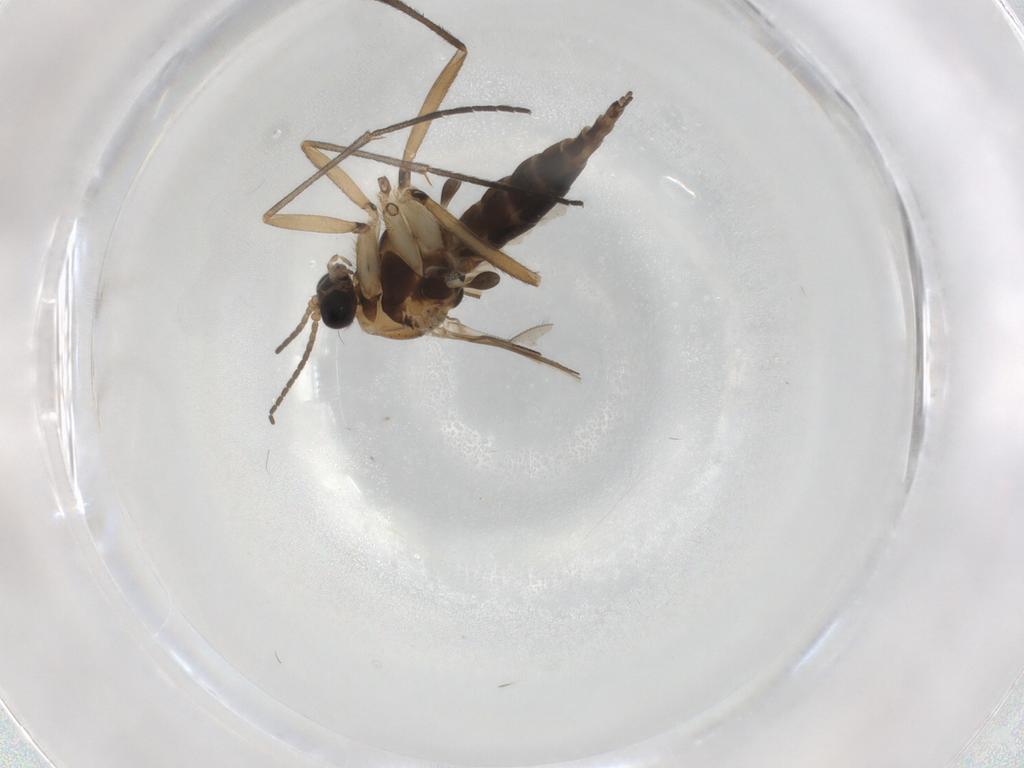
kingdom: Animalia
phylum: Arthropoda
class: Insecta
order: Diptera
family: Sciaridae
